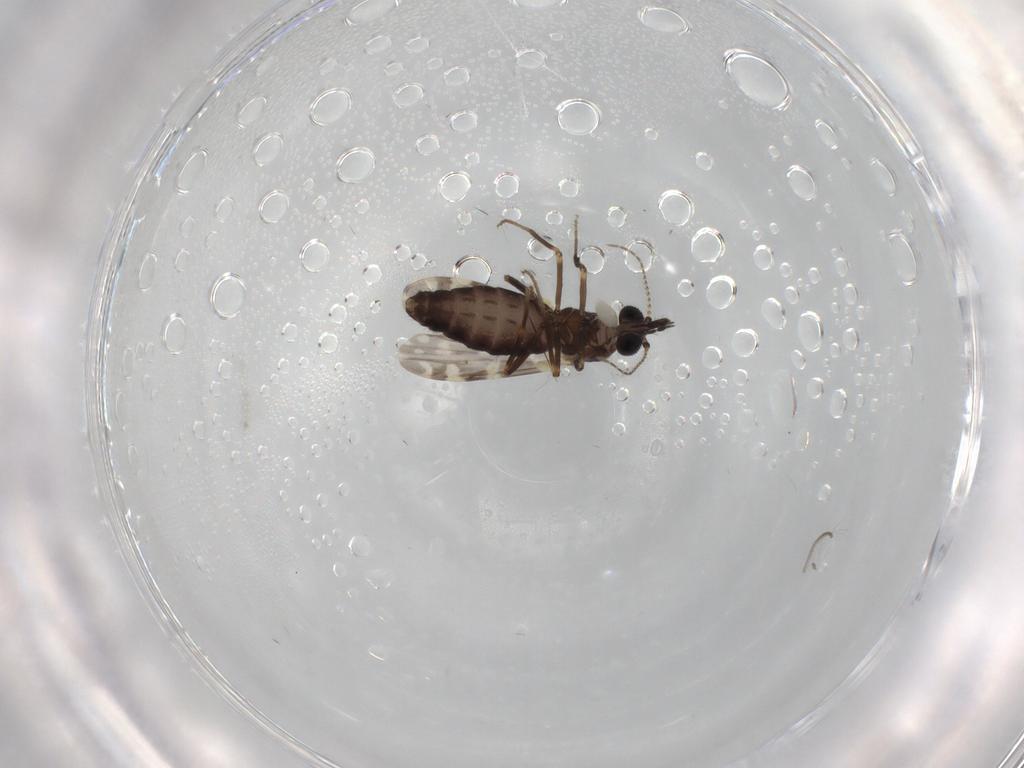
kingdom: Animalia
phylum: Arthropoda
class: Insecta
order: Diptera
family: Ceratopogonidae
